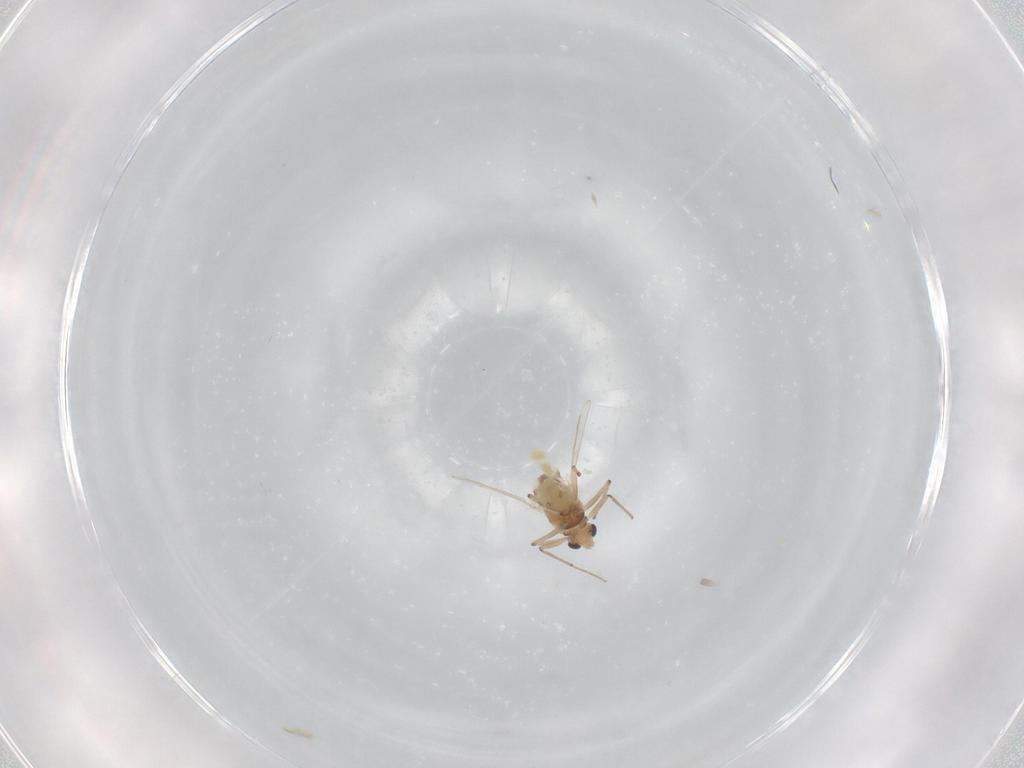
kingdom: Animalia
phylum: Arthropoda
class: Insecta
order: Diptera
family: Chironomidae
